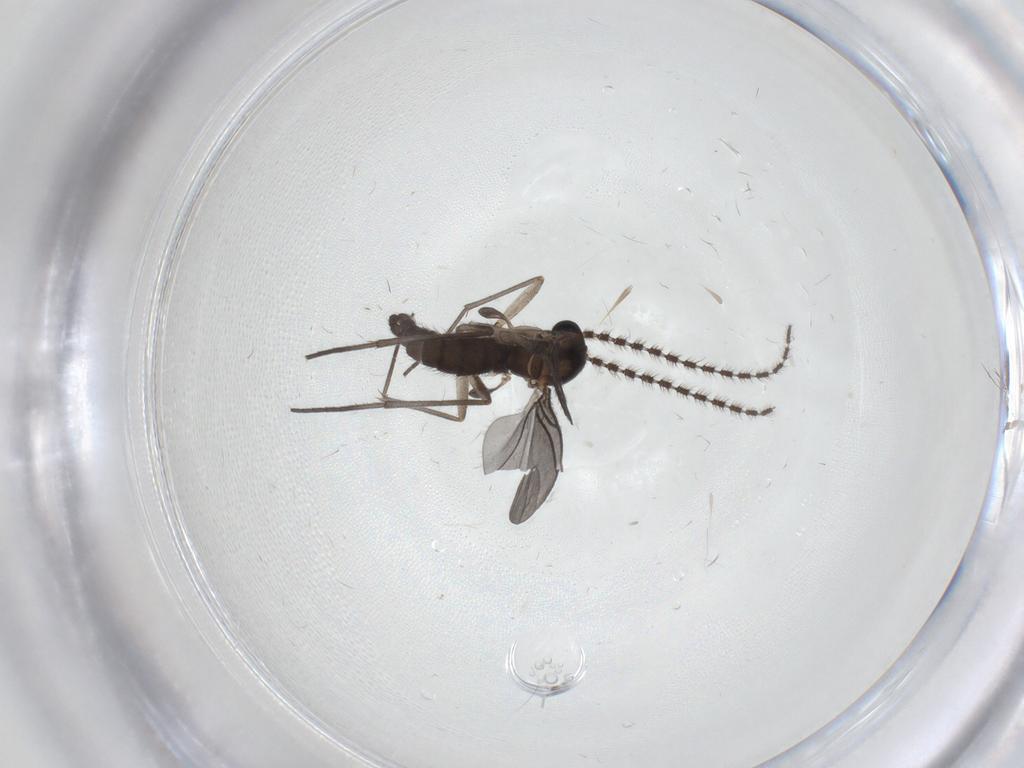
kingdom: Animalia
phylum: Arthropoda
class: Insecta
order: Diptera
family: Sciaridae
